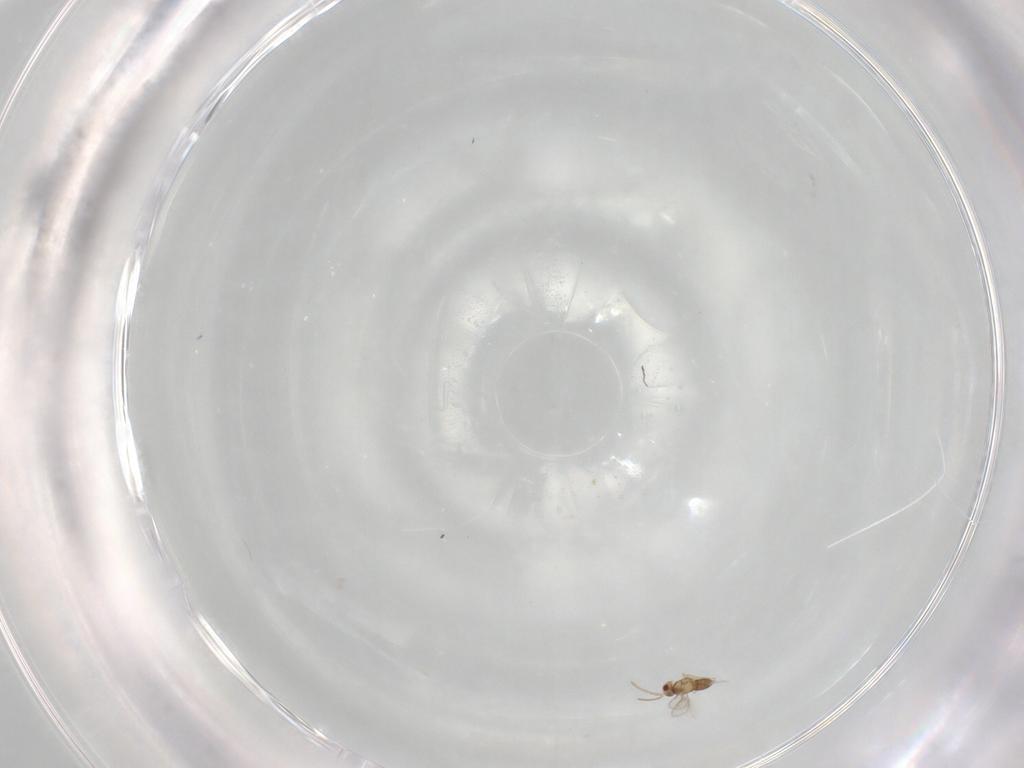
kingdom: Animalia
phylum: Arthropoda
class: Insecta
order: Hymenoptera
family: Aphelinidae
